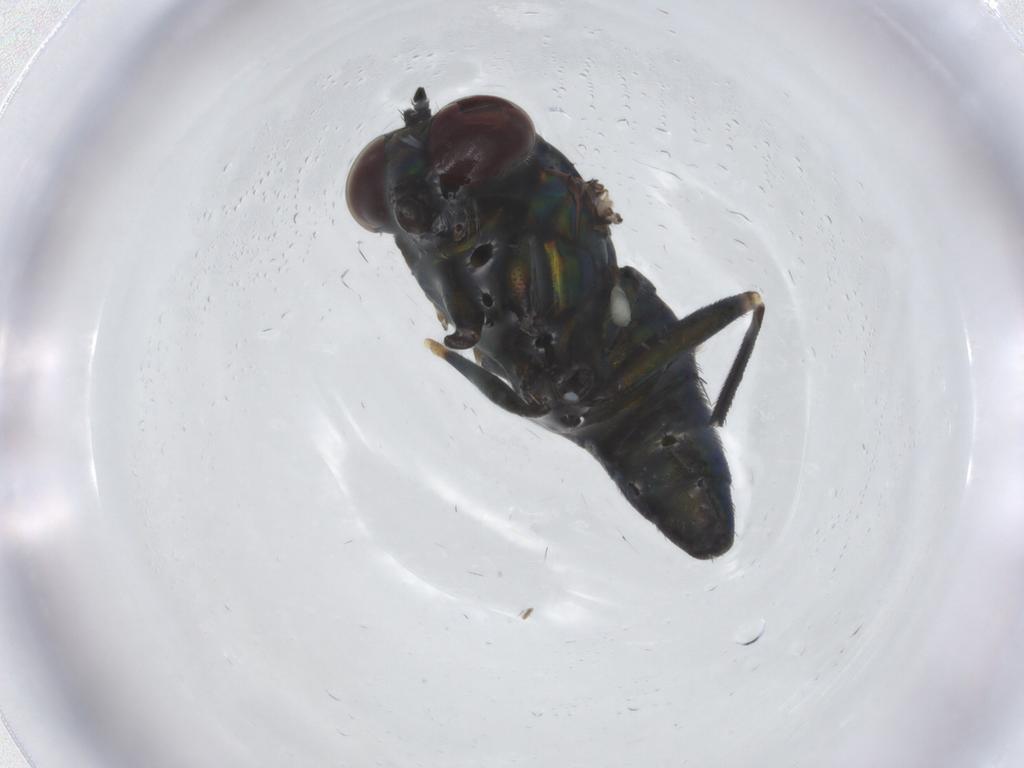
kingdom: Animalia
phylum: Arthropoda
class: Insecta
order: Diptera
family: Dolichopodidae
